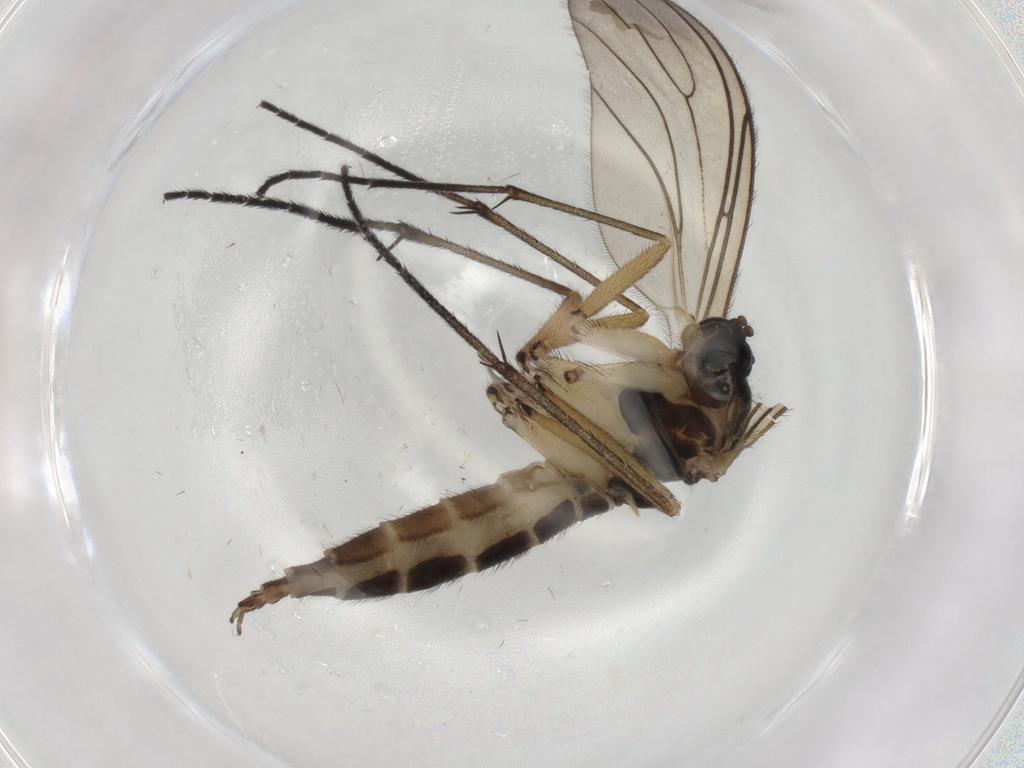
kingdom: Animalia
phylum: Arthropoda
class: Insecta
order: Diptera
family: Sciaridae
